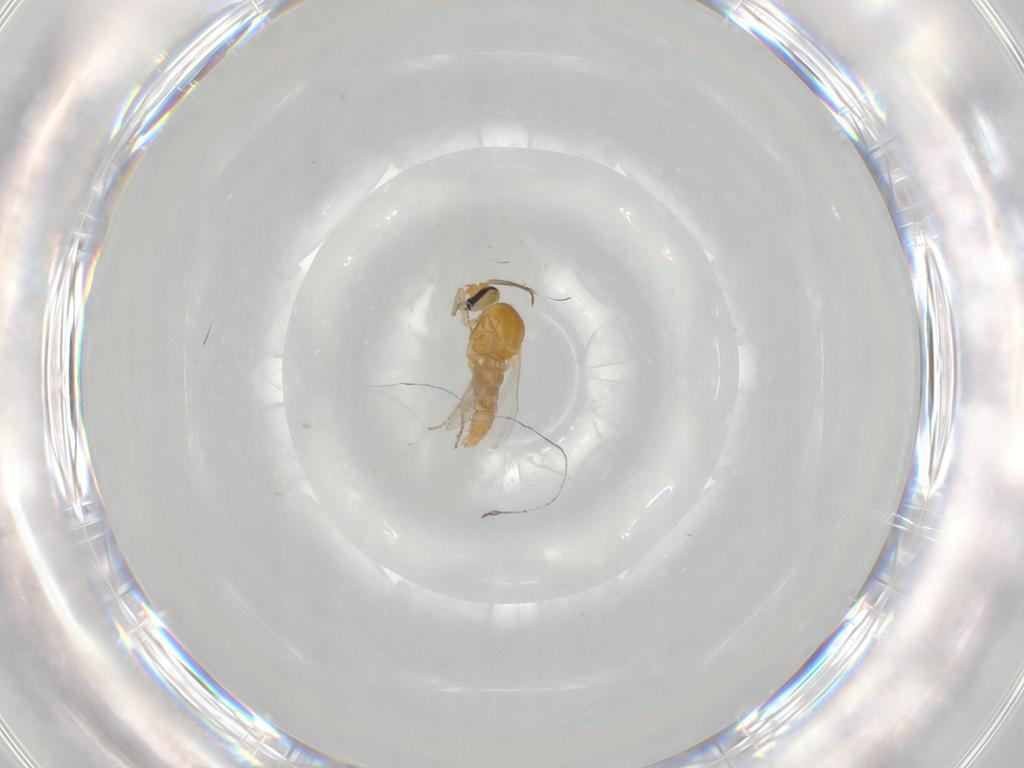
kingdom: Animalia
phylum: Arthropoda
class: Insecta
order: Diptera
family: Ceratopogonidae
